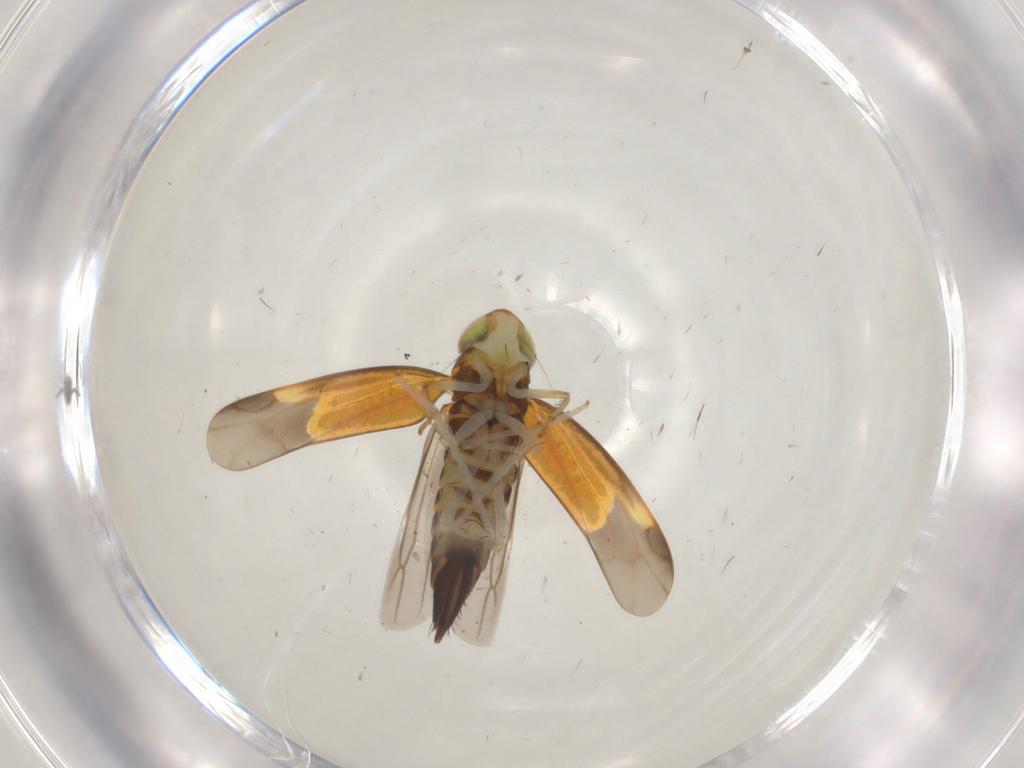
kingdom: Animalia
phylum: Arthropoda
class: Insecta
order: Hemiptera
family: Cicadellidae
